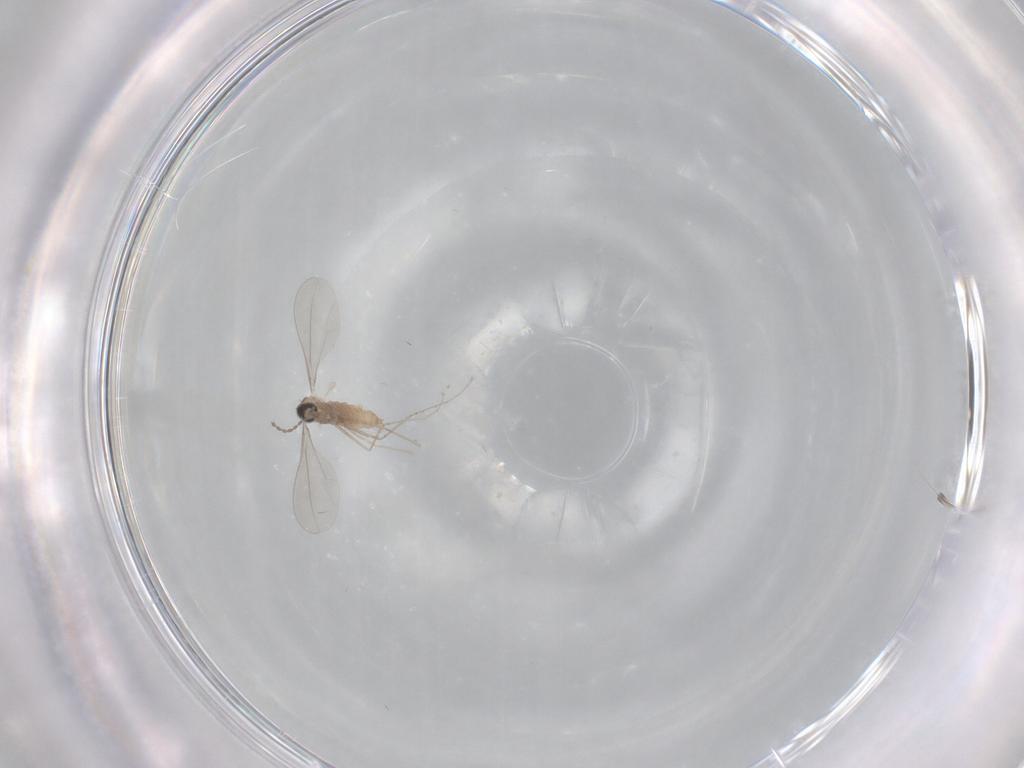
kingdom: Animalia
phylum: Arthropoda
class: Insecta
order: Diptera
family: Cecidomyiidae
